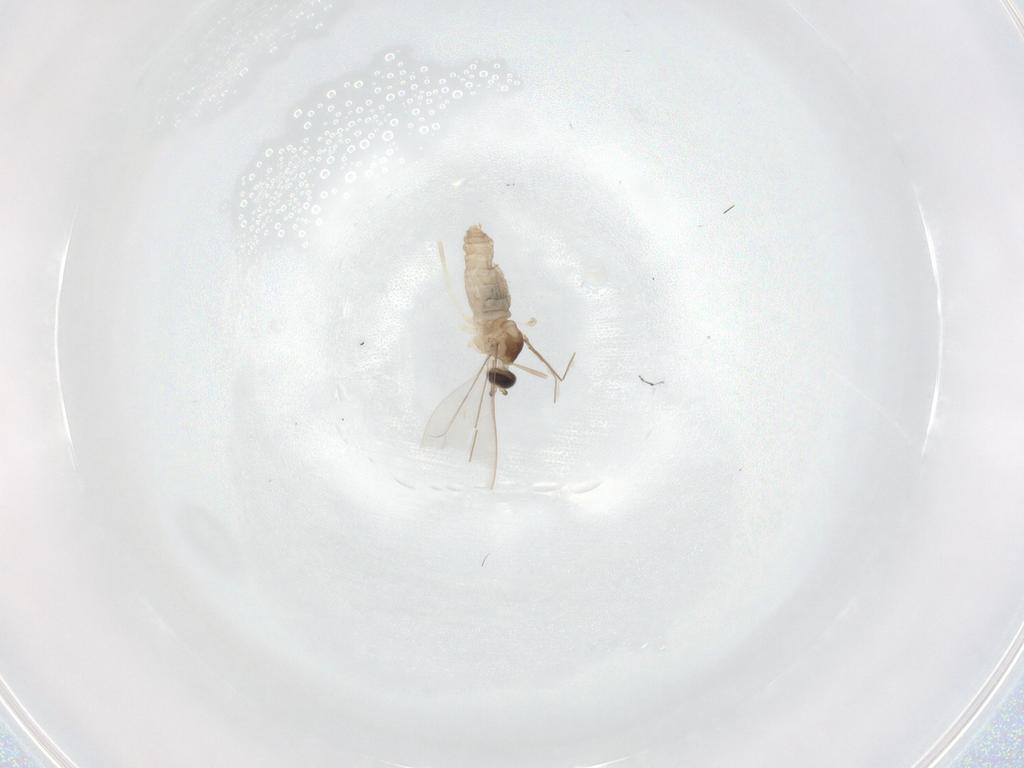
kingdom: Animalia
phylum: Arthropoda
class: Insecta
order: Diptera
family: Cecidomyiidae
